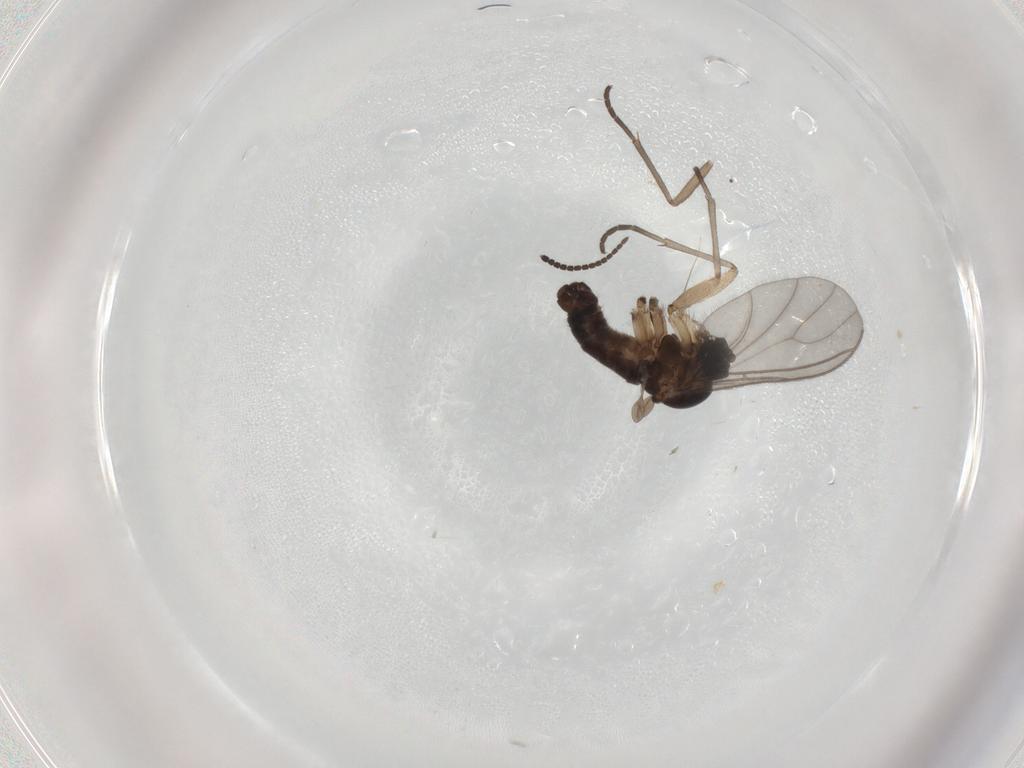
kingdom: Animalia
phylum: Arthropoda
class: Insecta
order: Diptera
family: Sciaridae
